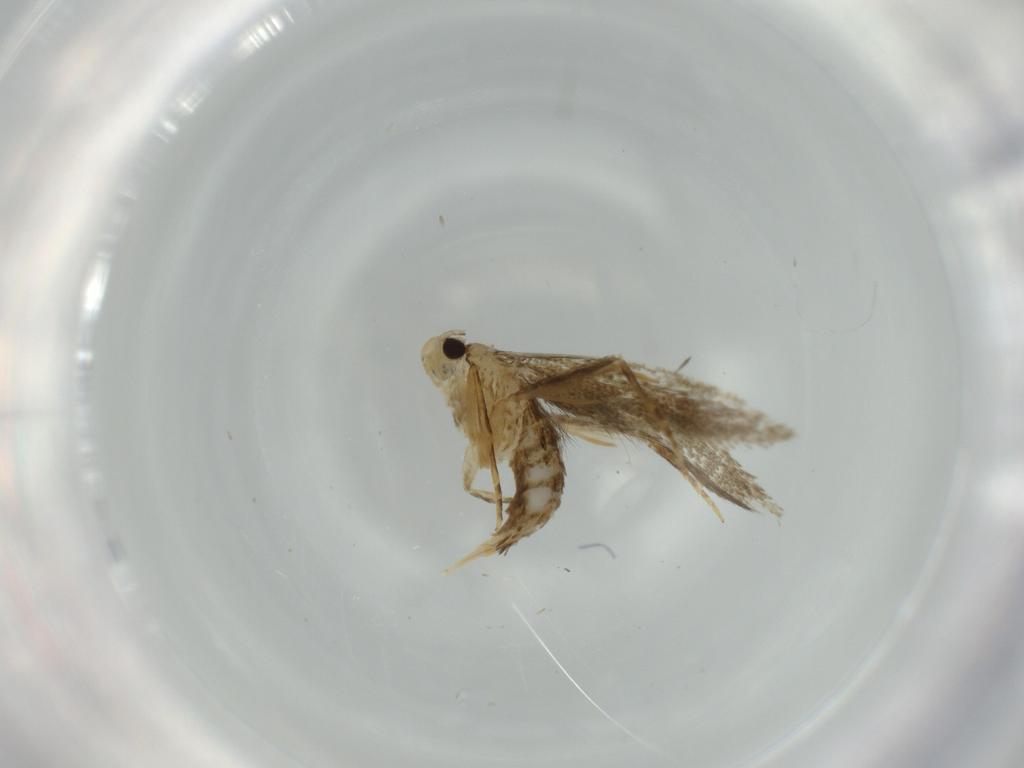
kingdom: Animalia
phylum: Arthropoda
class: Insecta
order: Lepidoptera
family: Tineidae
